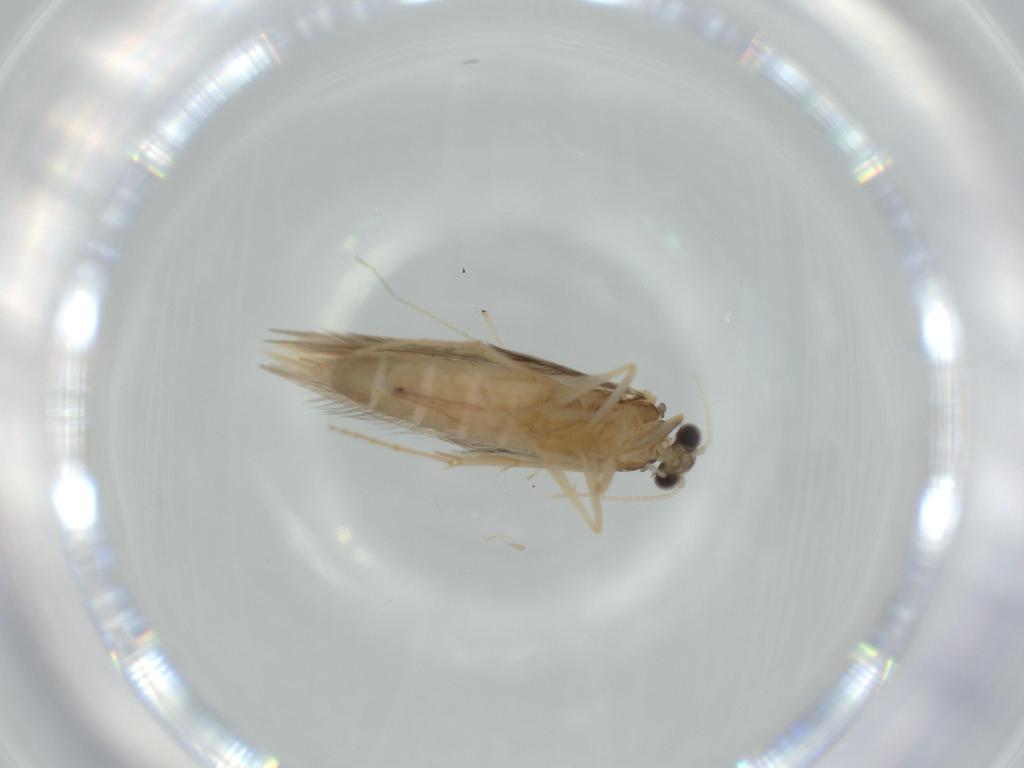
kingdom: Animalia
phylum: Arthropoda
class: Insecta
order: Trichoptera
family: Hydroptilidae
